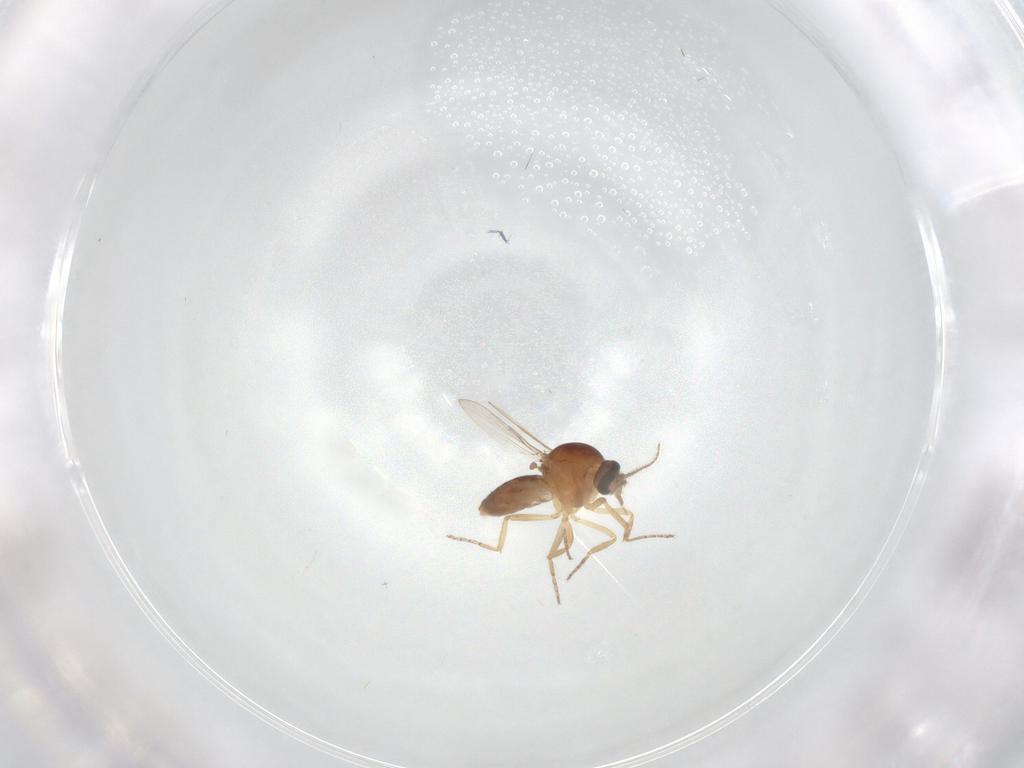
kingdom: Animalia
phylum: Arthropoda
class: Insecta
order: Diptera
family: Ceratopogonidae
